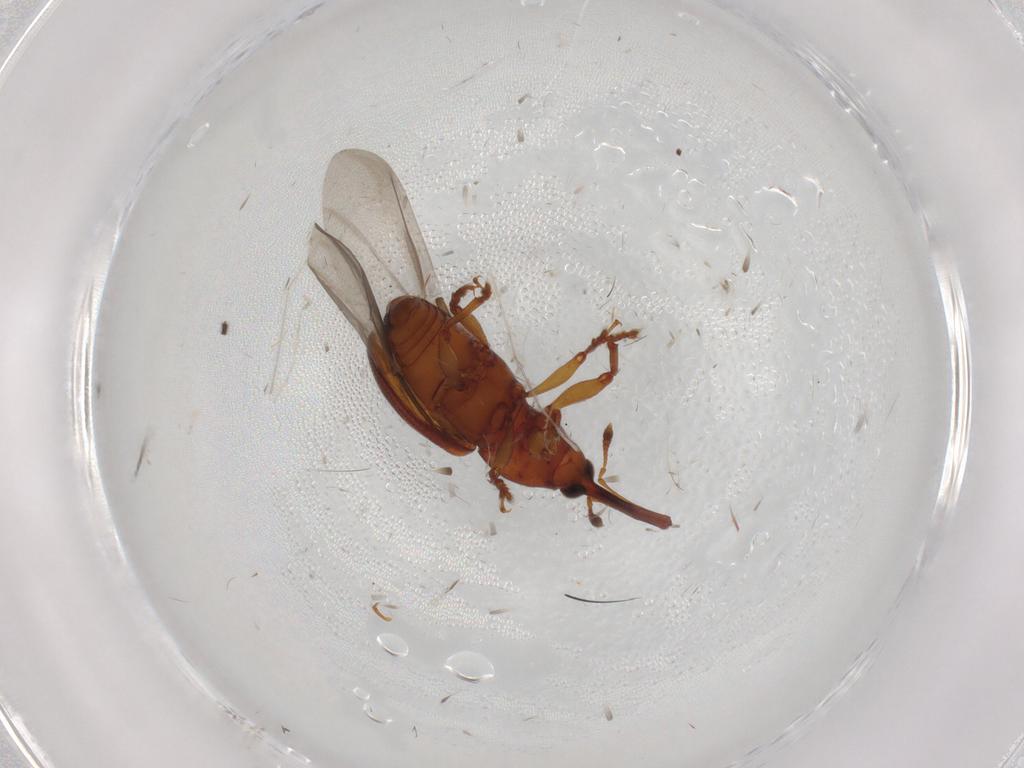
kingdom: Animalia
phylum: Arthropoda
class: Insecta
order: Coleoptera
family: Curculionidae
